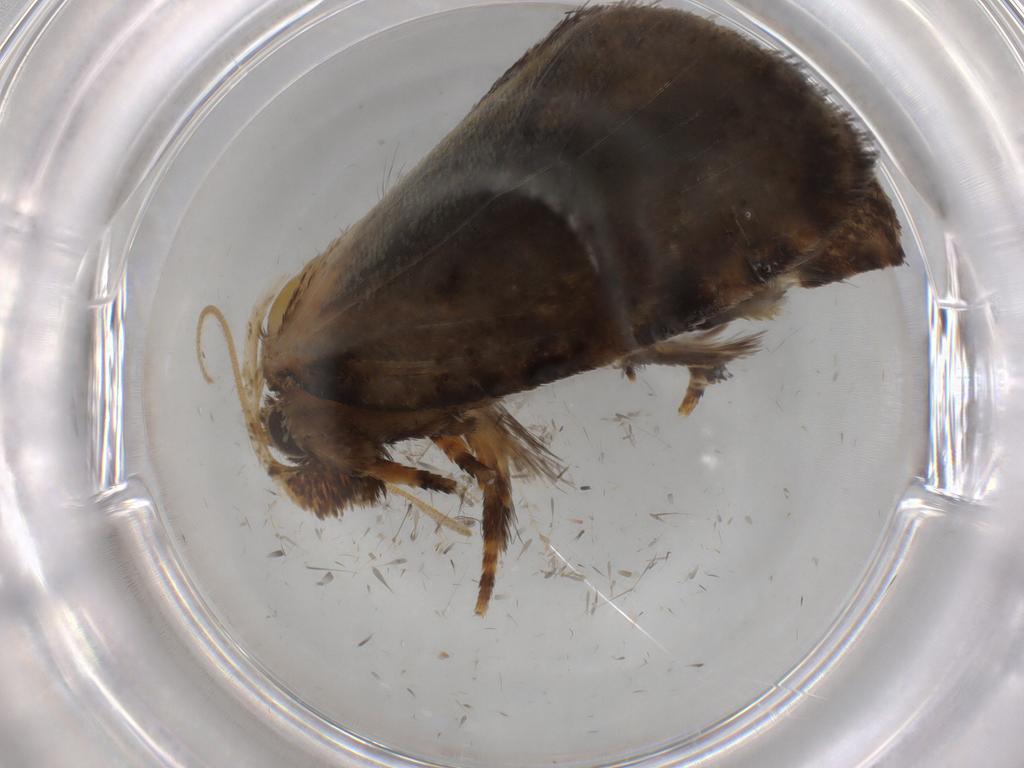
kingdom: Animalia
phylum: Arthropoda
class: Insecta
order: Lepidoptera
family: Tineidae
